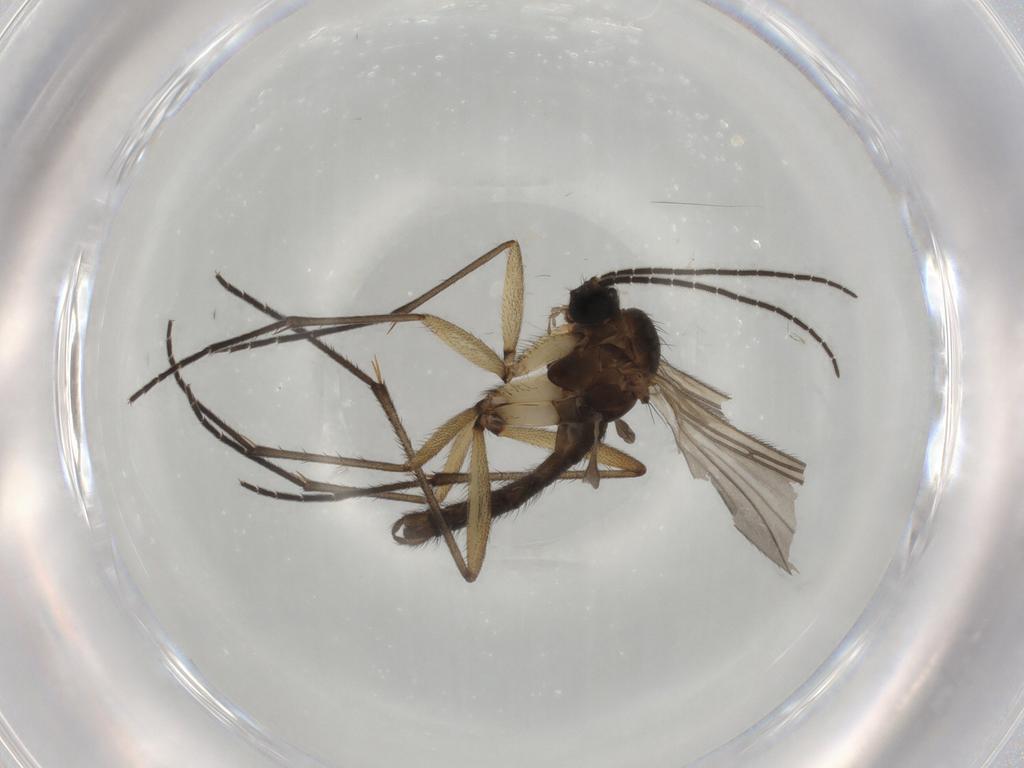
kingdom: Animalia
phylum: Arthropoda
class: Insecta
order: Diptera
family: Sciaridae
